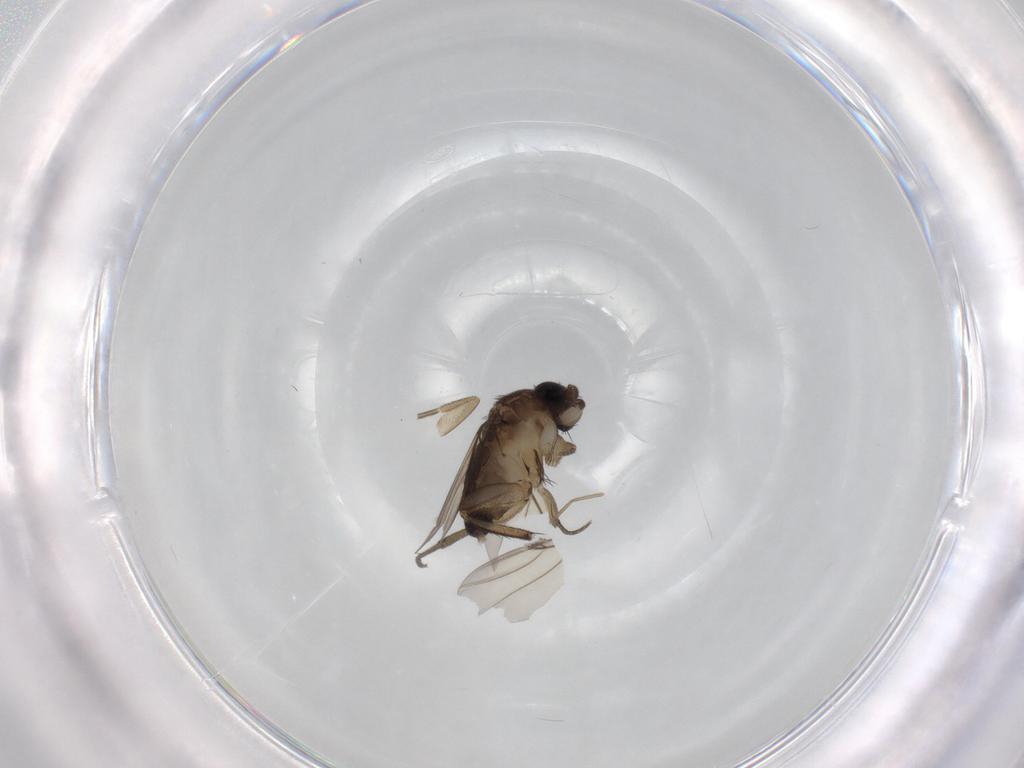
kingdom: Animalia
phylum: Arthropoda
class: Insecta
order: Diptera
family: Phoridae
